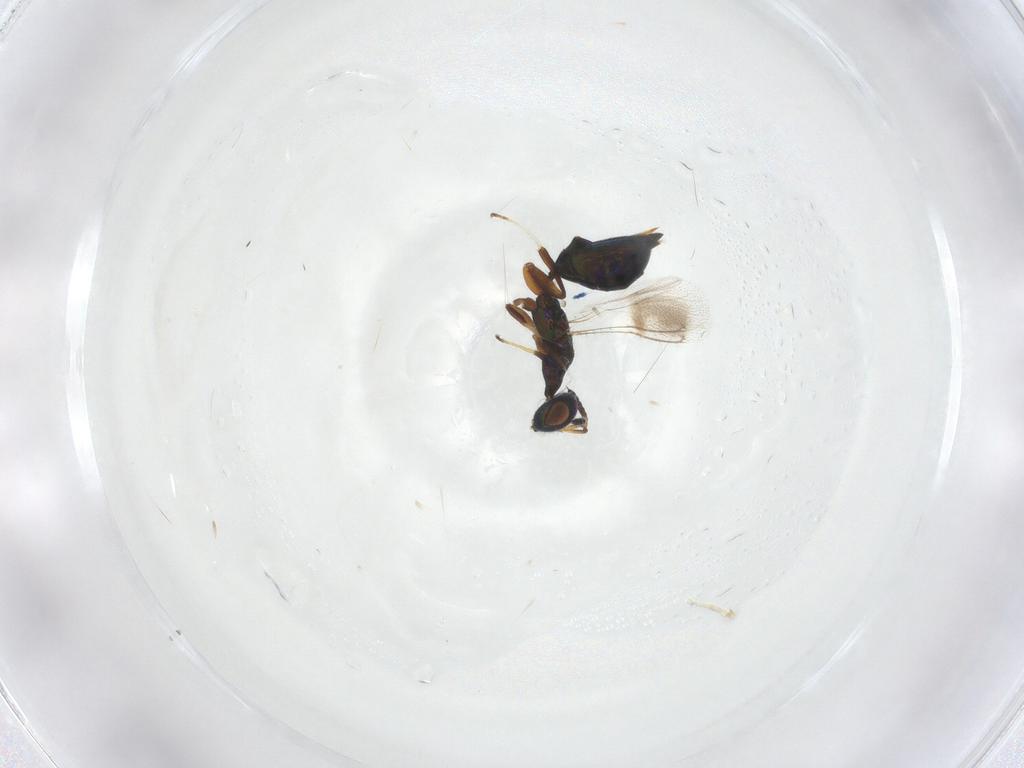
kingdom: Animalia
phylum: Arthropoda
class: Insecta
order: Hymenoptera
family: Cleonyminae
